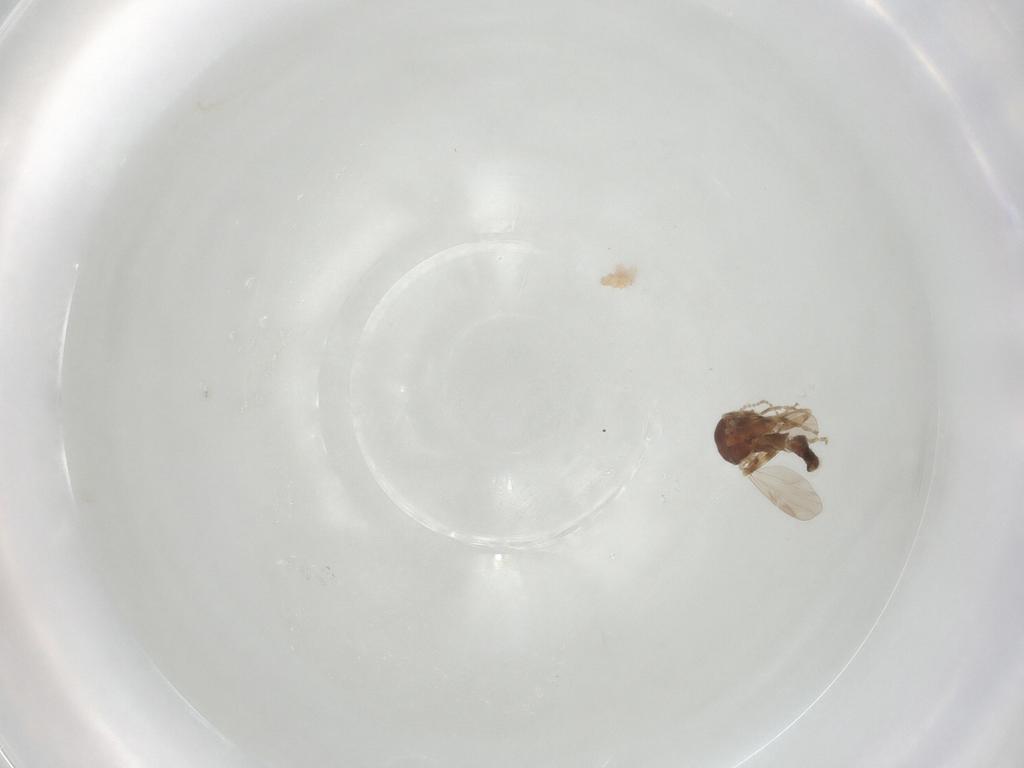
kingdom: Animalia
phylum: Arthropoda
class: Insecta
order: Diptera
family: Ceratopogonidae
